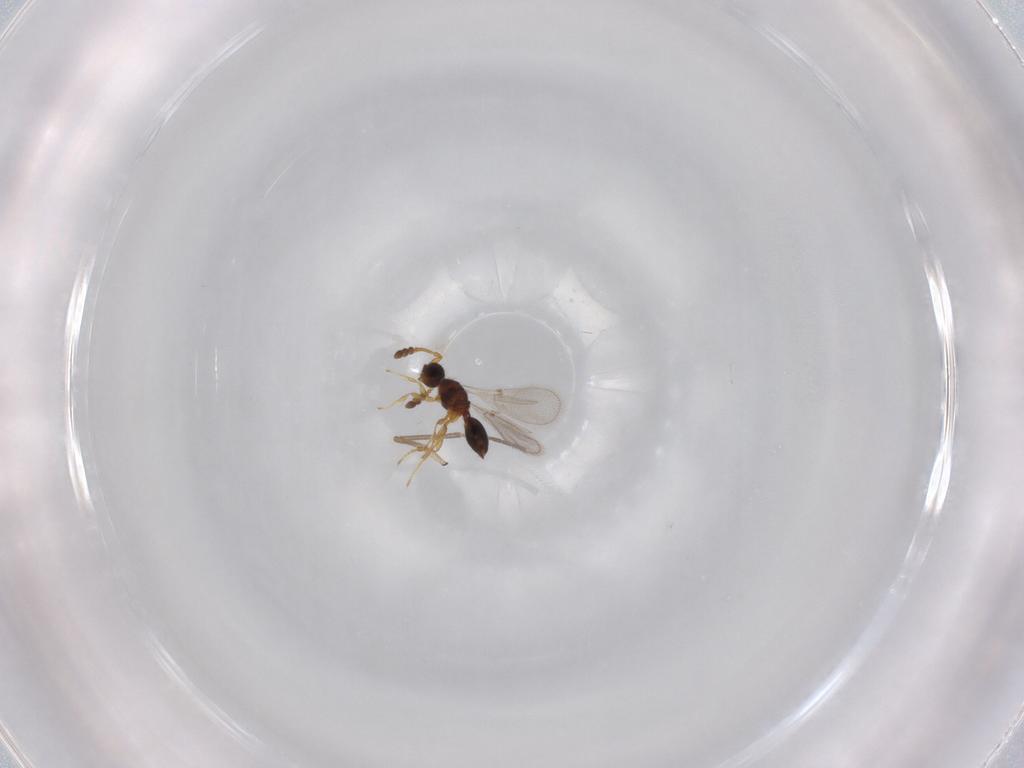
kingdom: Animalia
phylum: Arthropoda
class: Insecta
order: Hymenoptera
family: Diapriidae
